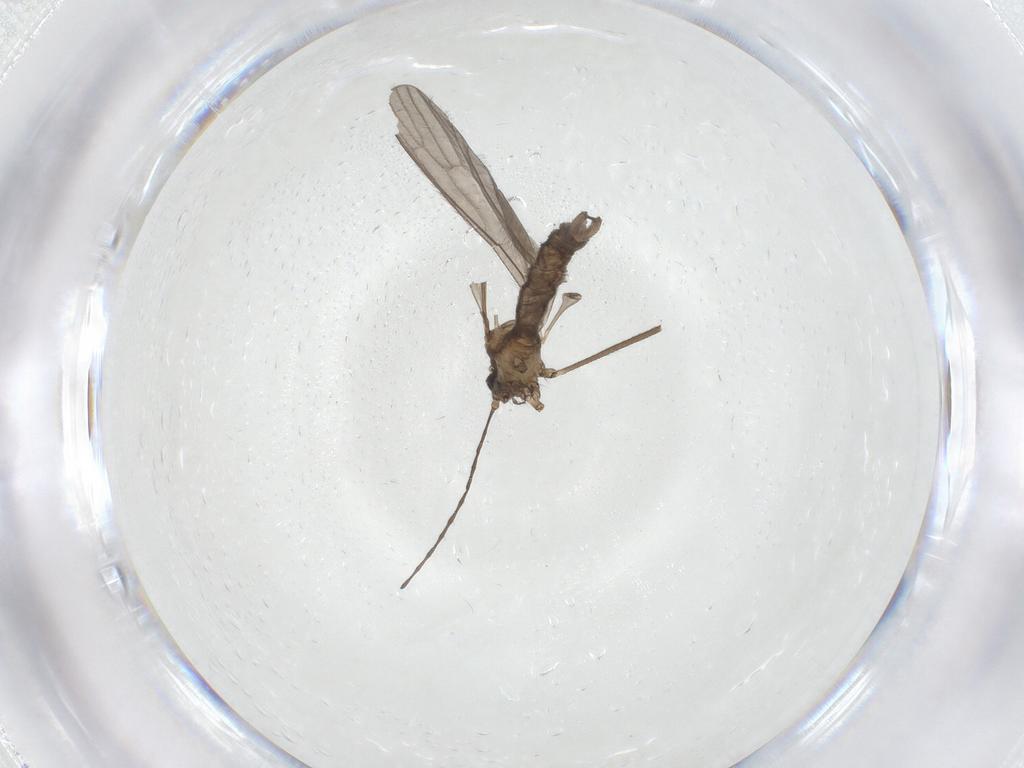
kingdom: Animalia
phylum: Arthropoda
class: Insecta
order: Diptera
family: Limoniidae
